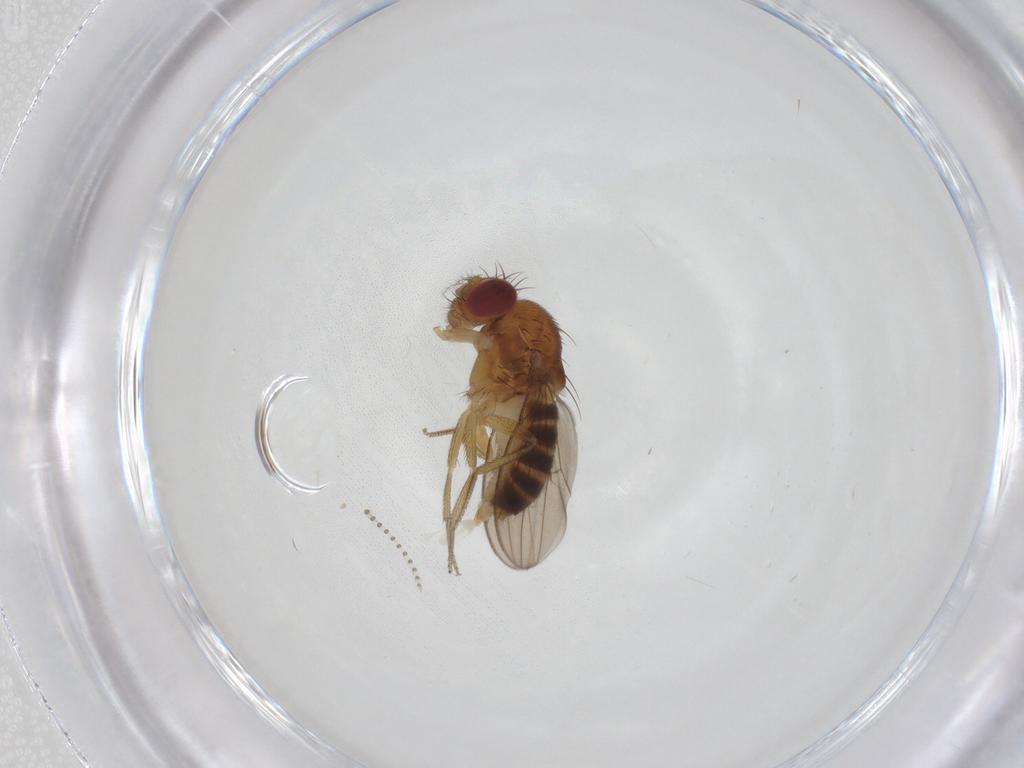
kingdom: Animalia
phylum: Arthropoda
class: Insecta
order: Diptera
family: Drosophilidae
